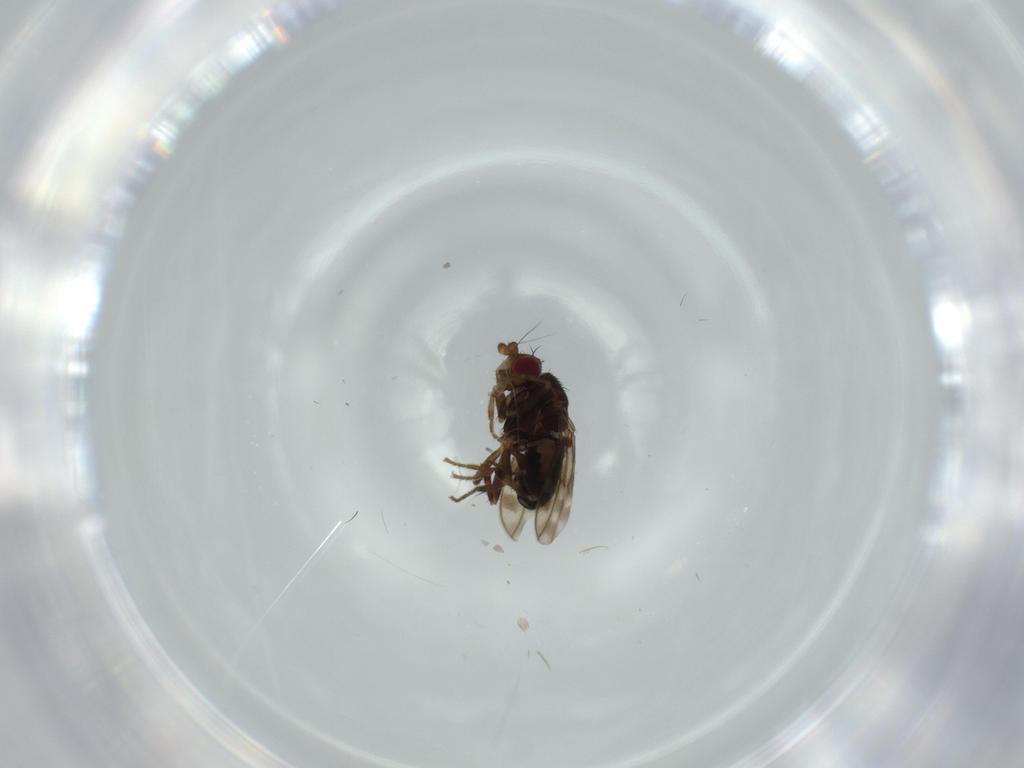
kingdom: Animalia
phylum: Arthropoda
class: Insecta
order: Diptera
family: Sphaeroceridae
